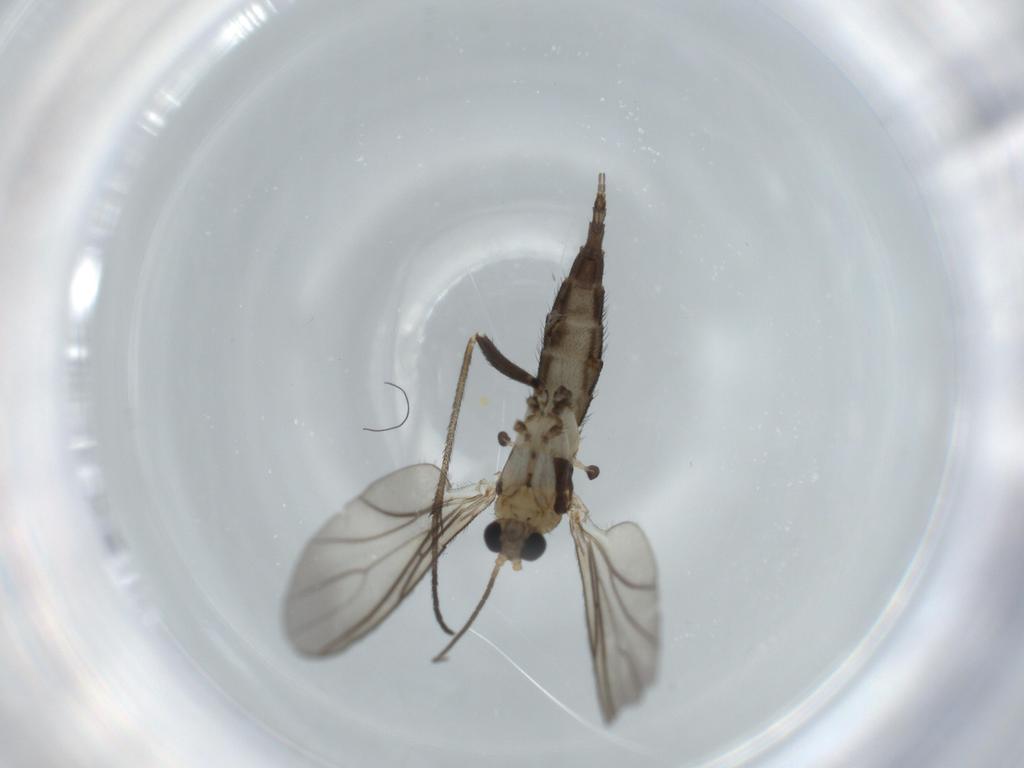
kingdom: Animalia
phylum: Arthropoda
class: Insecta
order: Diptera
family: Sciaridae
